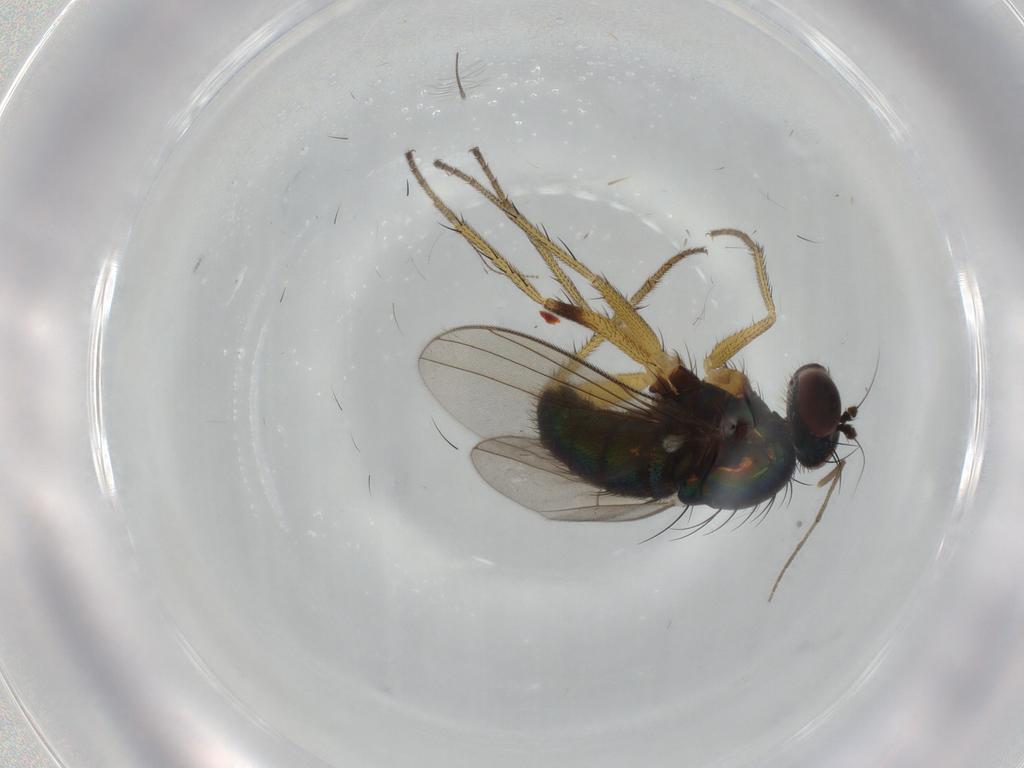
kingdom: Animalia
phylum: Arthropoda
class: Insecta
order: Diptera
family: Dolichopodidae
